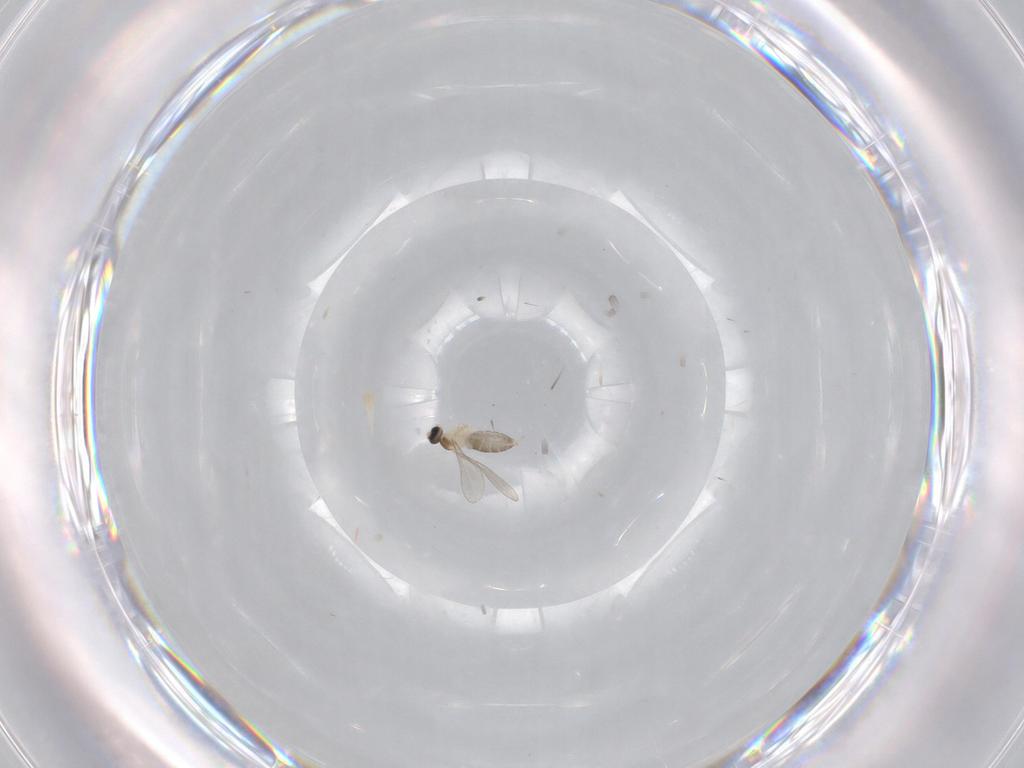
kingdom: Animalia
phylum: Arthropoda
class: Insecta
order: Diptera
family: Cecidomyiidae
